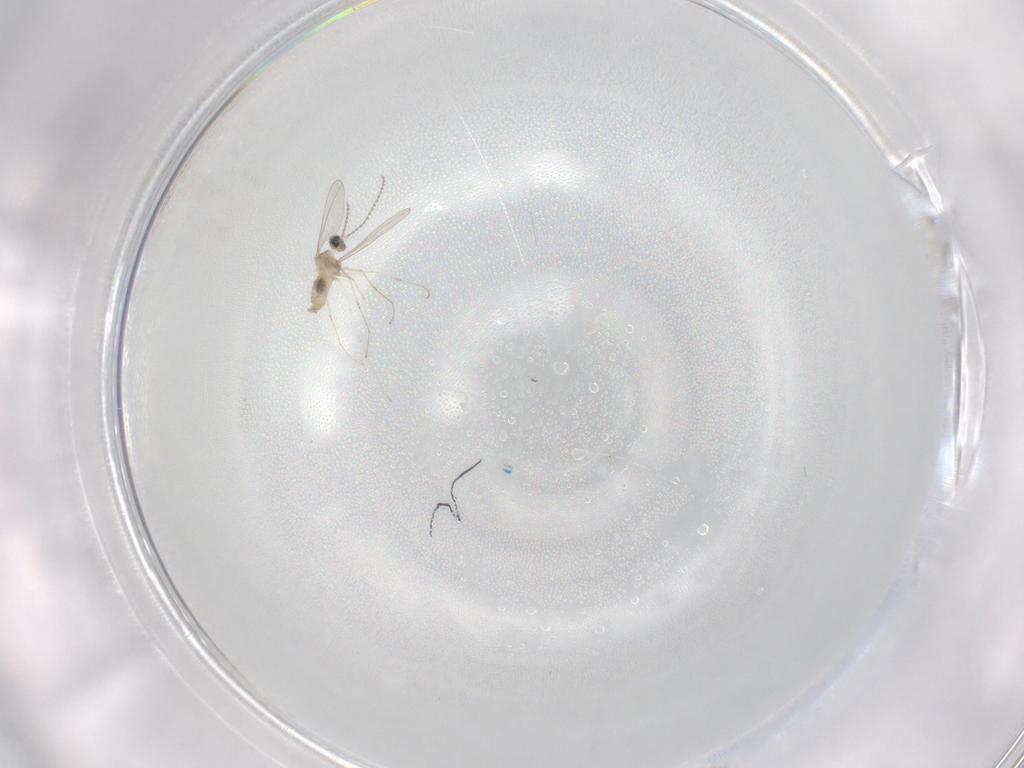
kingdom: Animalia
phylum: Arthropoda
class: Insecta
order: Diptera
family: Cecidomyiidae
